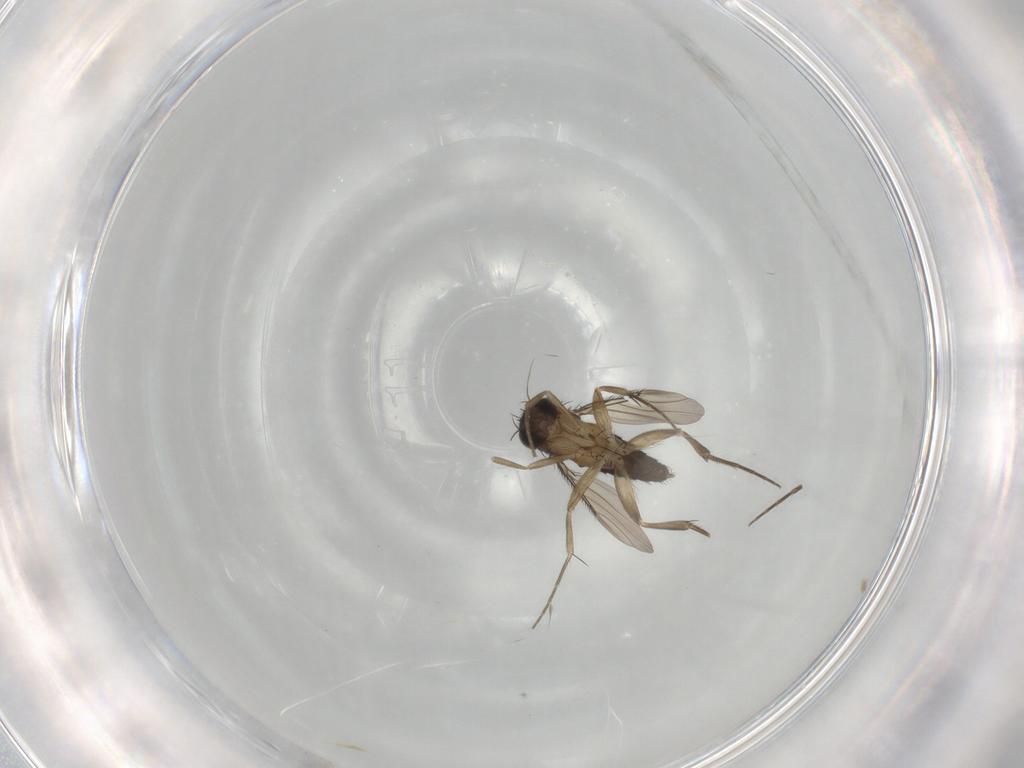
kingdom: Animalia
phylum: Arthropoda
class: Insecta
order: Diptera
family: Phoridae
